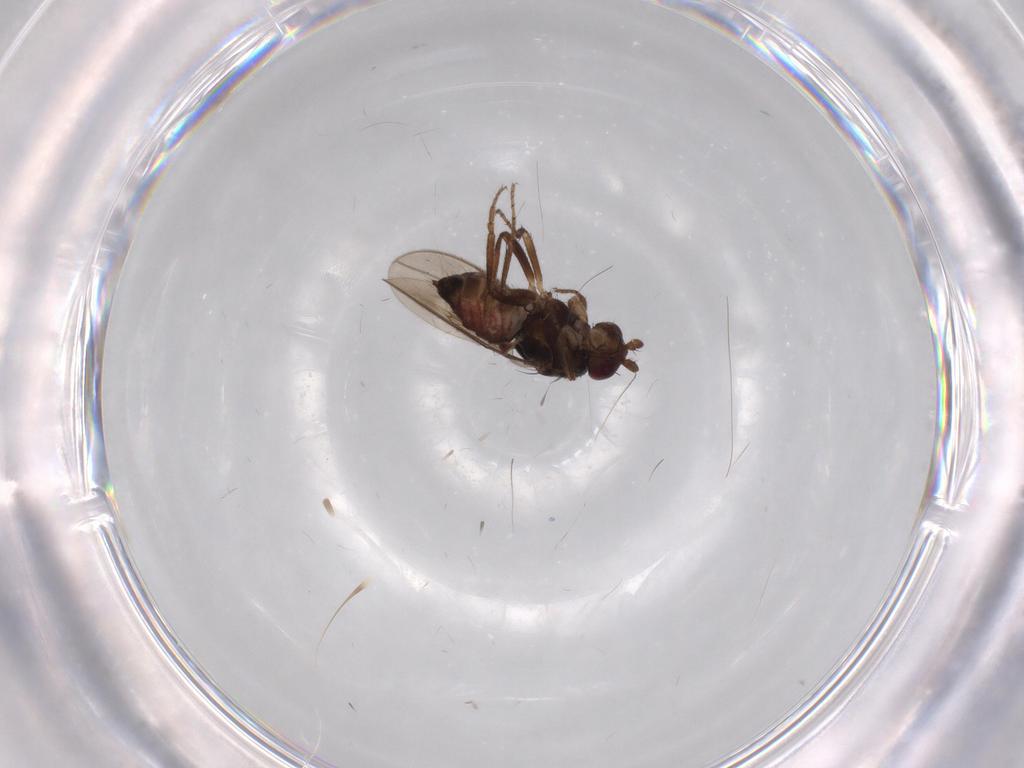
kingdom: Animalia
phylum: Arthropoda
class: Insecta
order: Diptera
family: Sphaeroceridae
